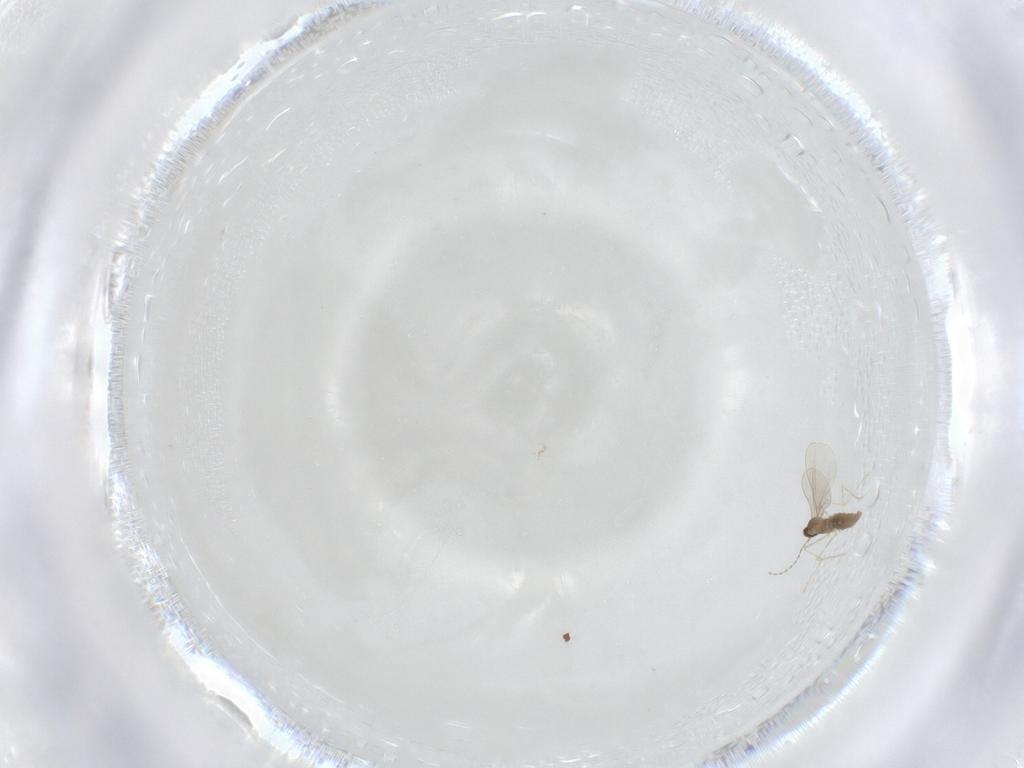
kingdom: Animalia
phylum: Arthropoda
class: Insecta
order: Diptera
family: Cecidomyiidae
